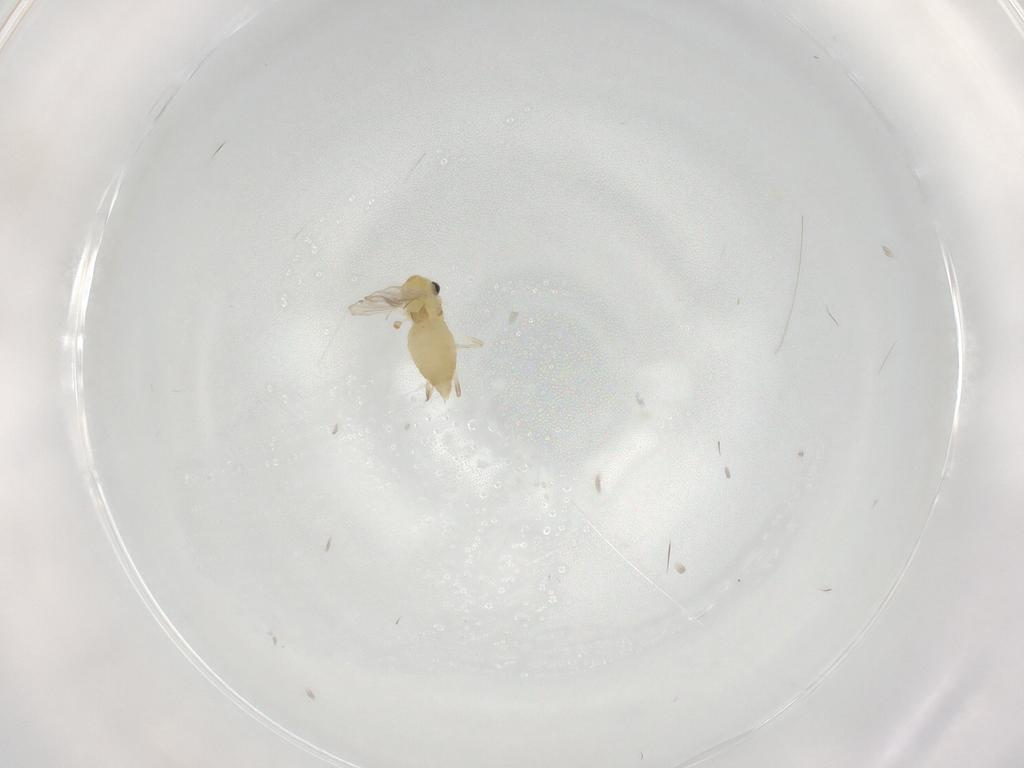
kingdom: Animalia
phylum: Arthropoda
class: Insecta
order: Diptera
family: Chironomidae
